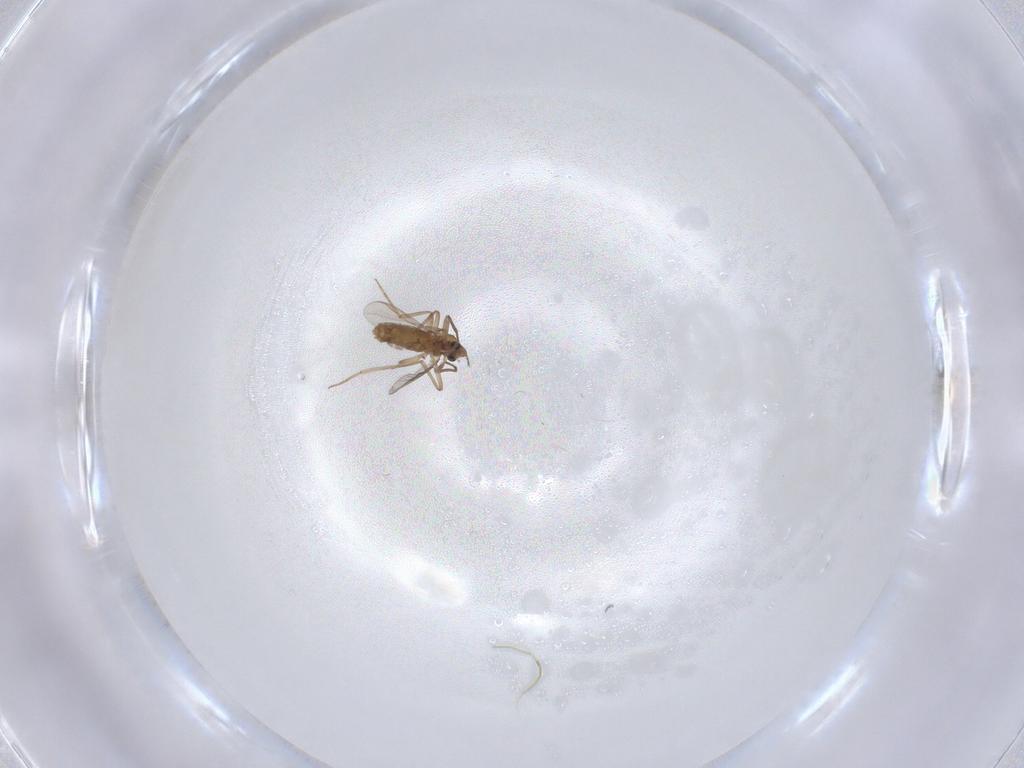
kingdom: Animalia
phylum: Arthropoda
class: Insecta
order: Diptera
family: Chironomidae
